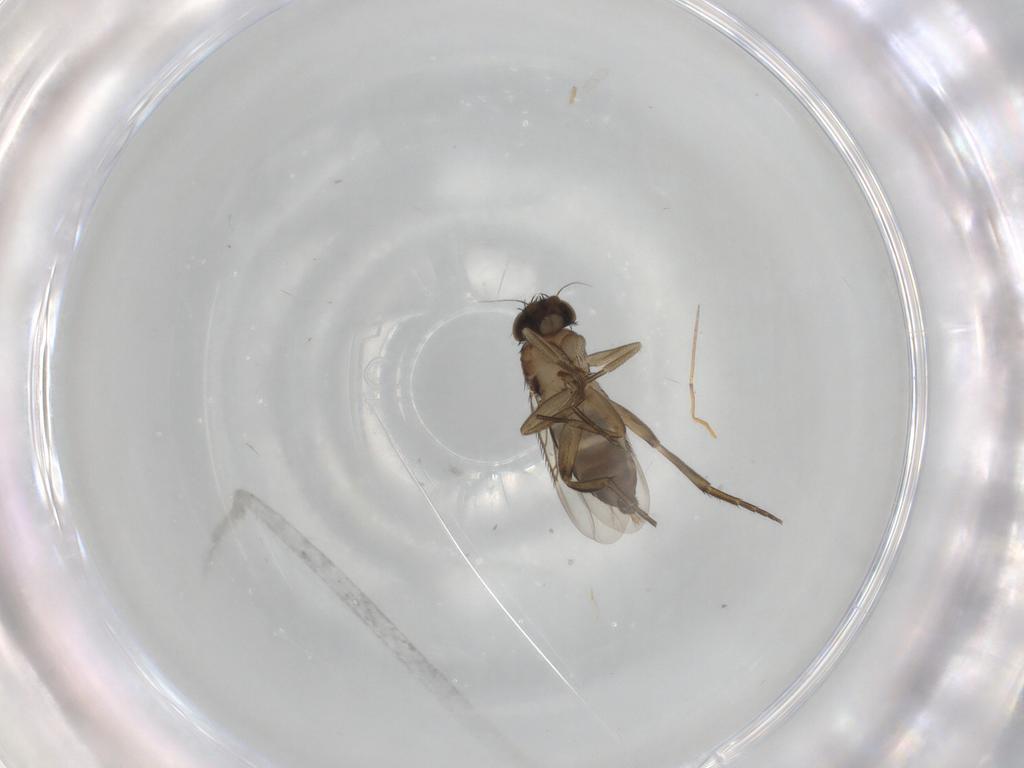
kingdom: Animalia
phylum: Arthropoda
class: Insecta
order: Diptera
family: Phoridae
